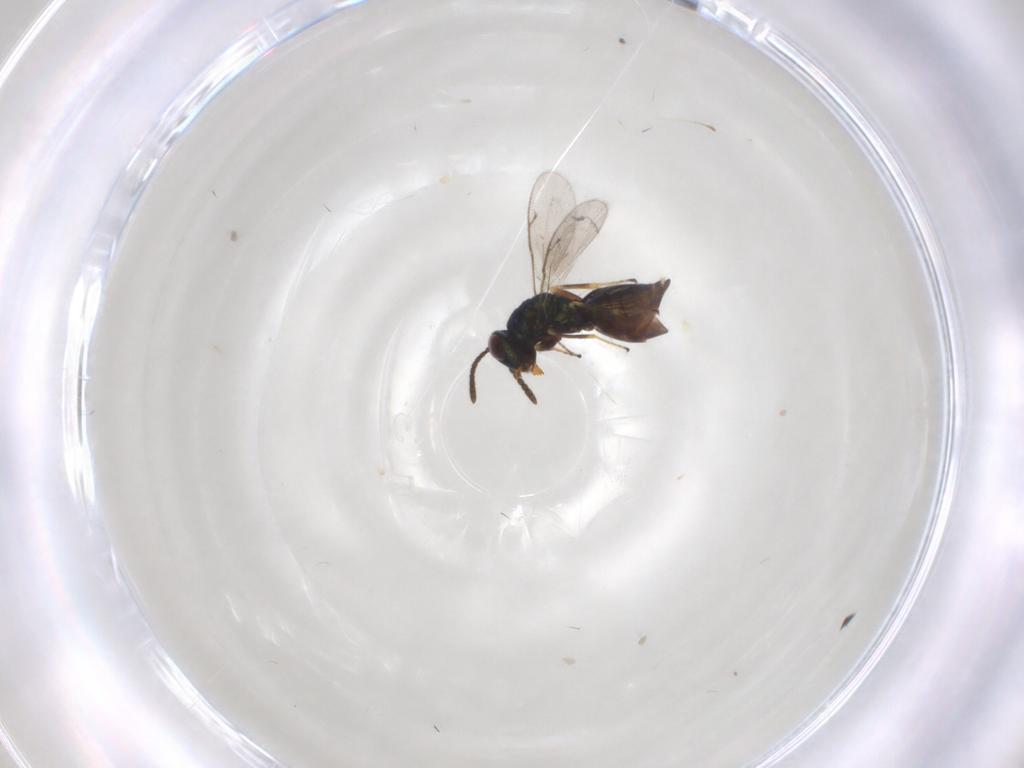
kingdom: Animalia
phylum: Arthropoda
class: Insecta
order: Hymenoptera
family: Pteromalidae
